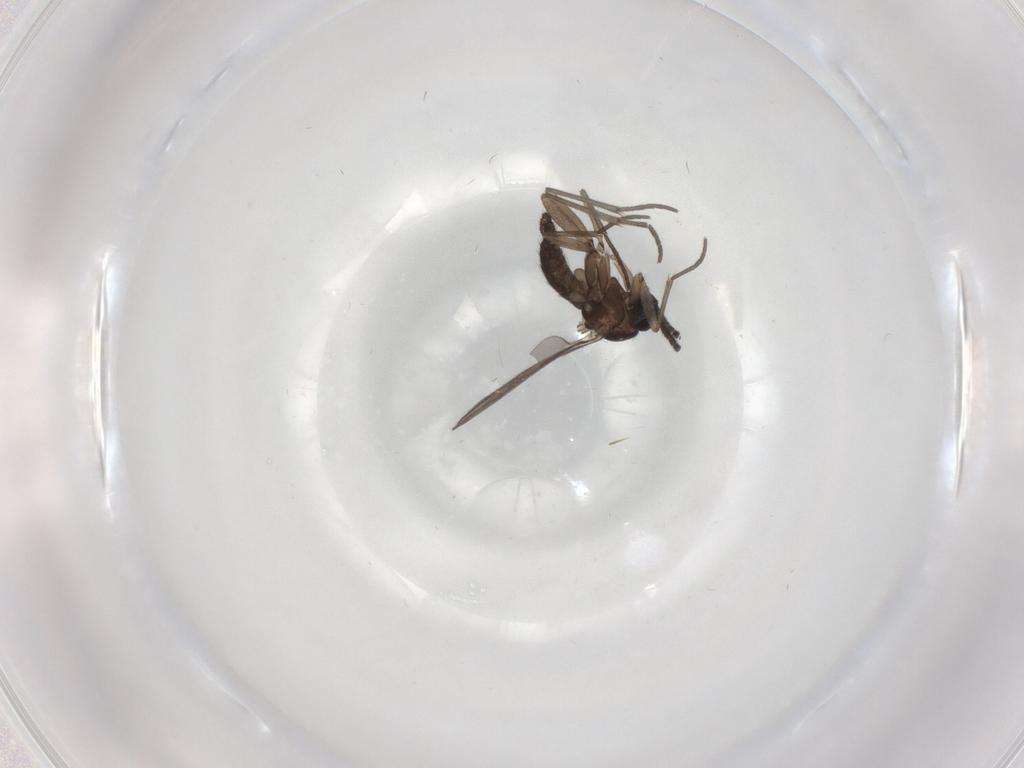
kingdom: Animalia
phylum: Arthropoda
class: Insecta
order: Diptera
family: Sciaridae
